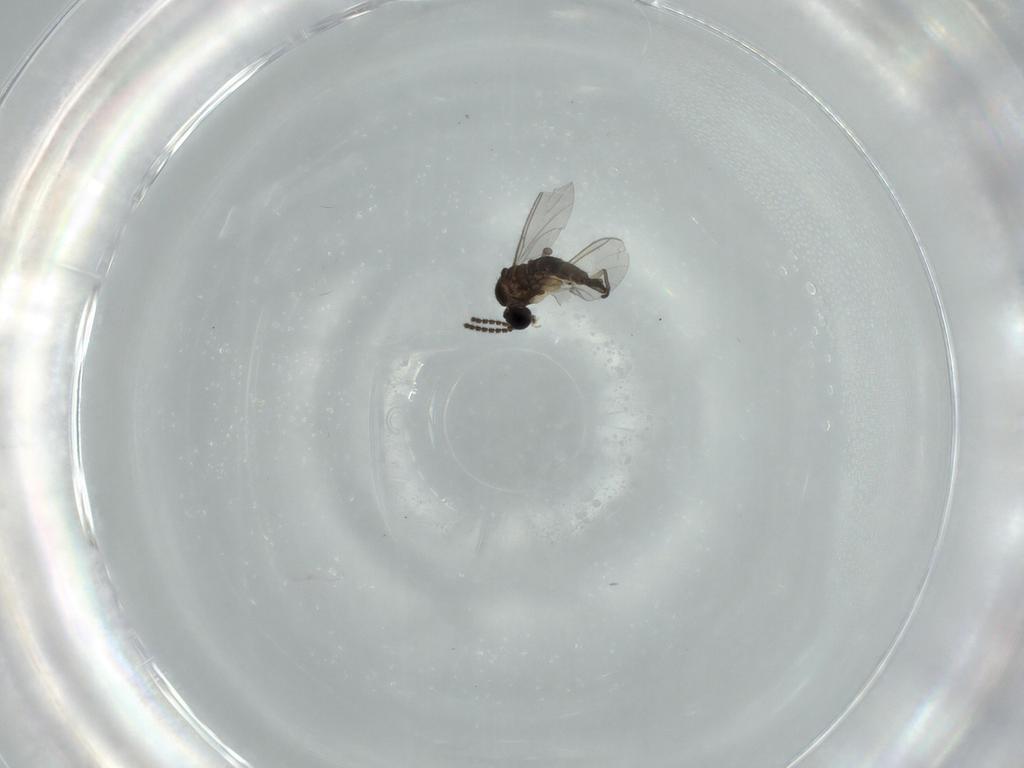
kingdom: Animalia
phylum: Arthropoda
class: Insecta
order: Diptera
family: Sciaridae
